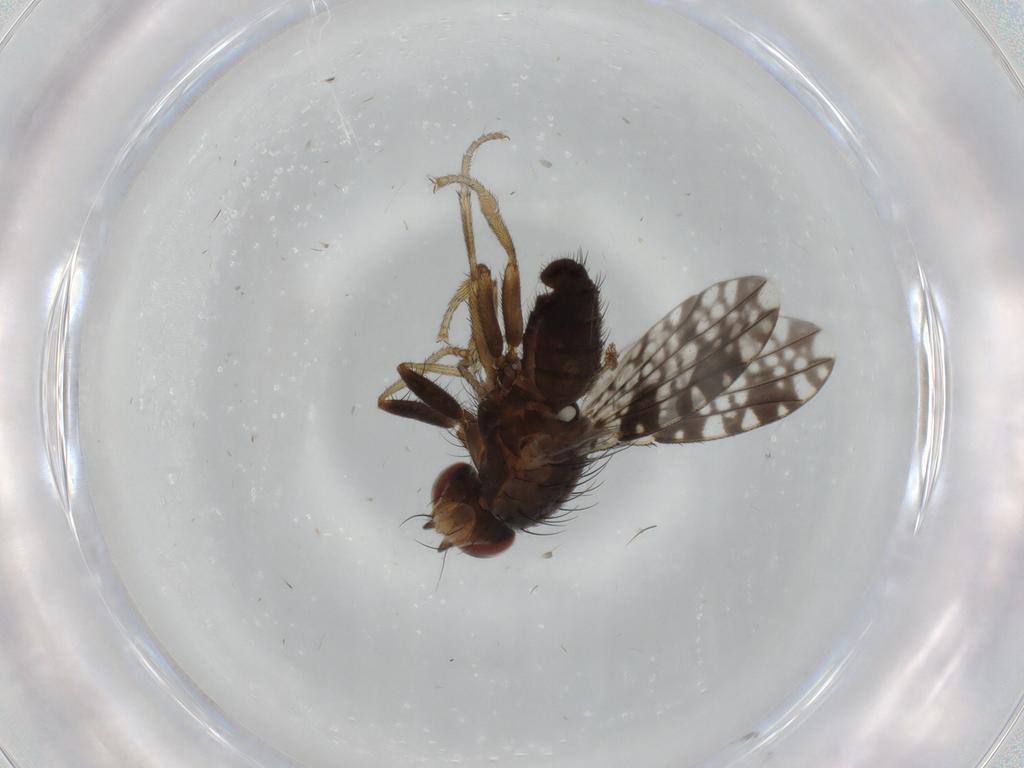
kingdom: Animalia
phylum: Arthropoda
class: Insecta
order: Diptera
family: Tephritidae
